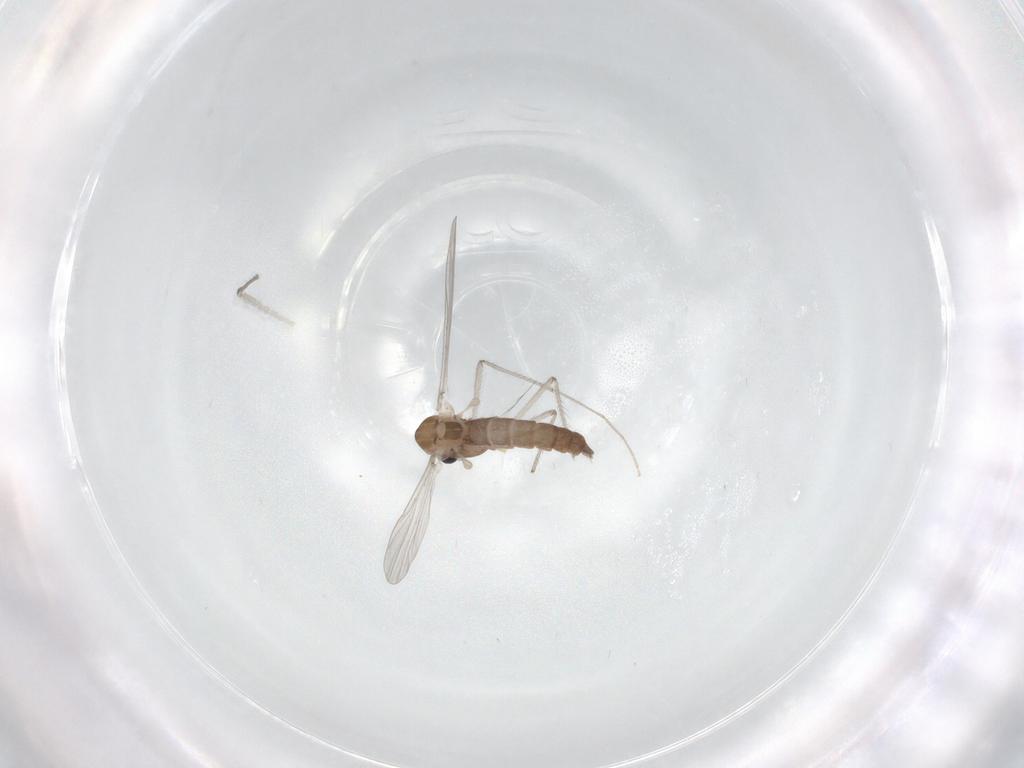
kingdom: Animalia
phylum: Arthropoda
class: Insecta
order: Diptera
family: Chironomidae
